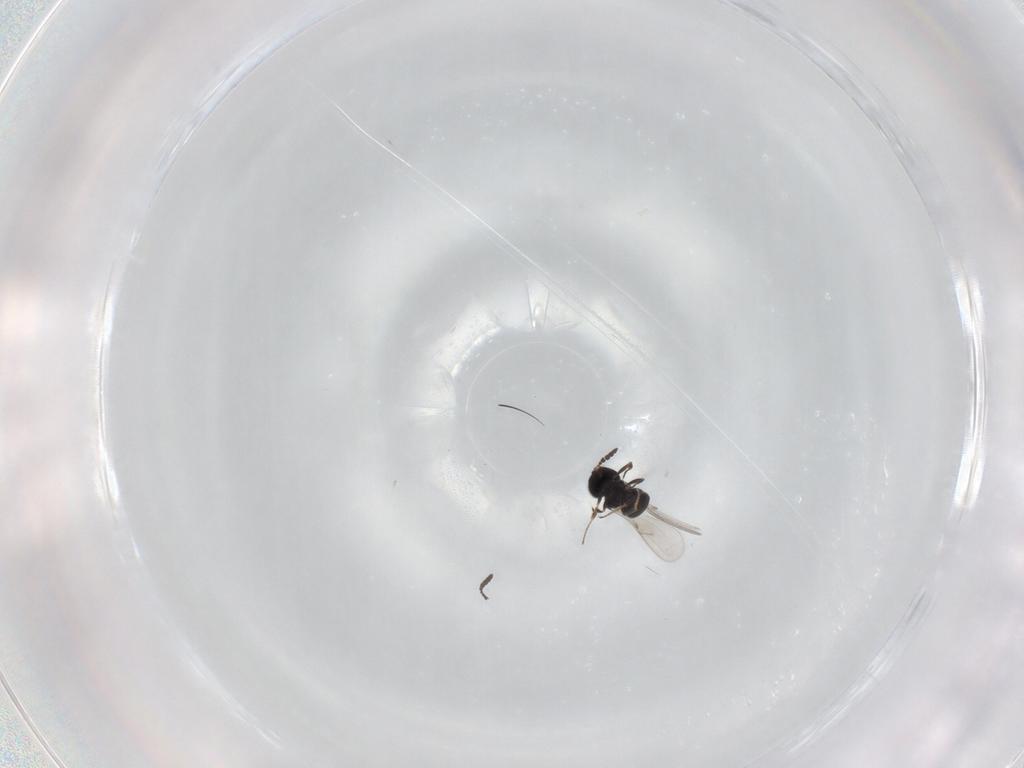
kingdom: Animalia
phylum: Arthropoda
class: Insecta
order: Hymenoptera
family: Scelionidae
